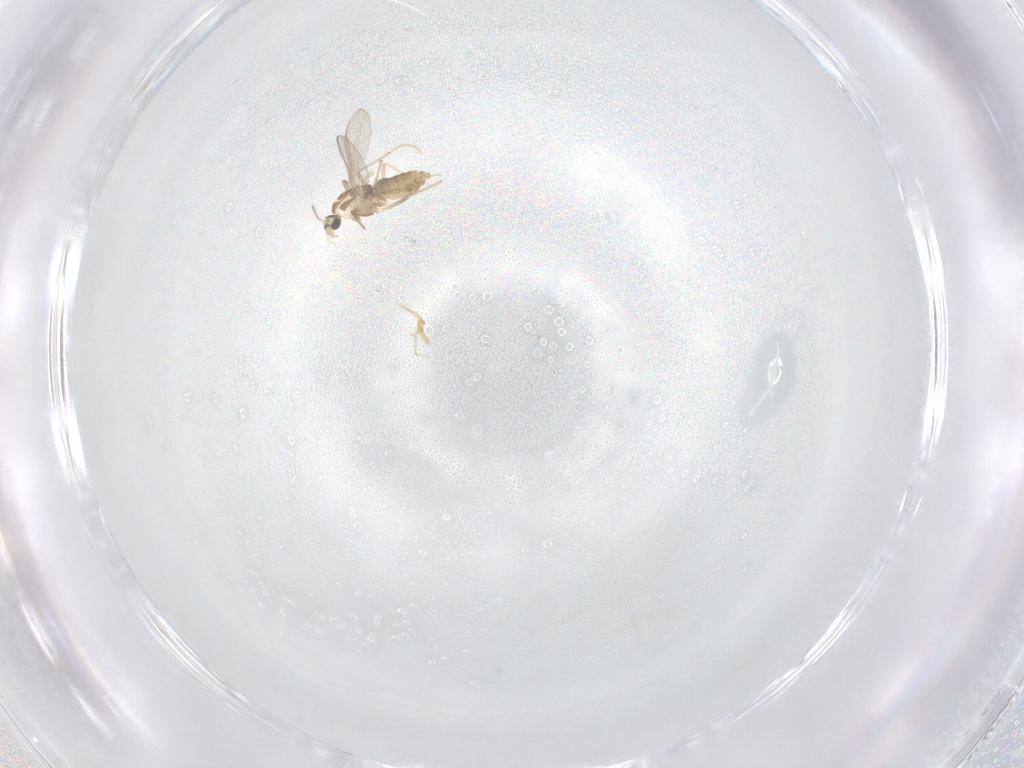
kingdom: Animalia
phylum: Arthropoda
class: Insecta
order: Diptera
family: Chironomidae
